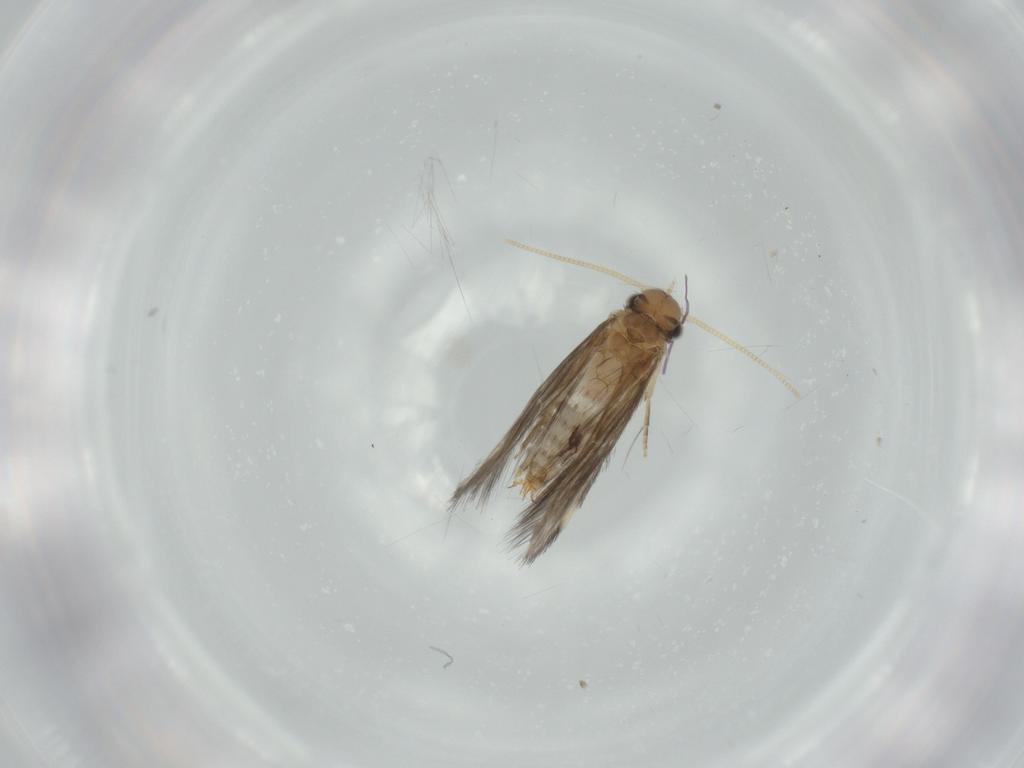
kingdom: Animalia
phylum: Arthropoda
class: Insecta
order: Trichoptera
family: Hydroptilidae
